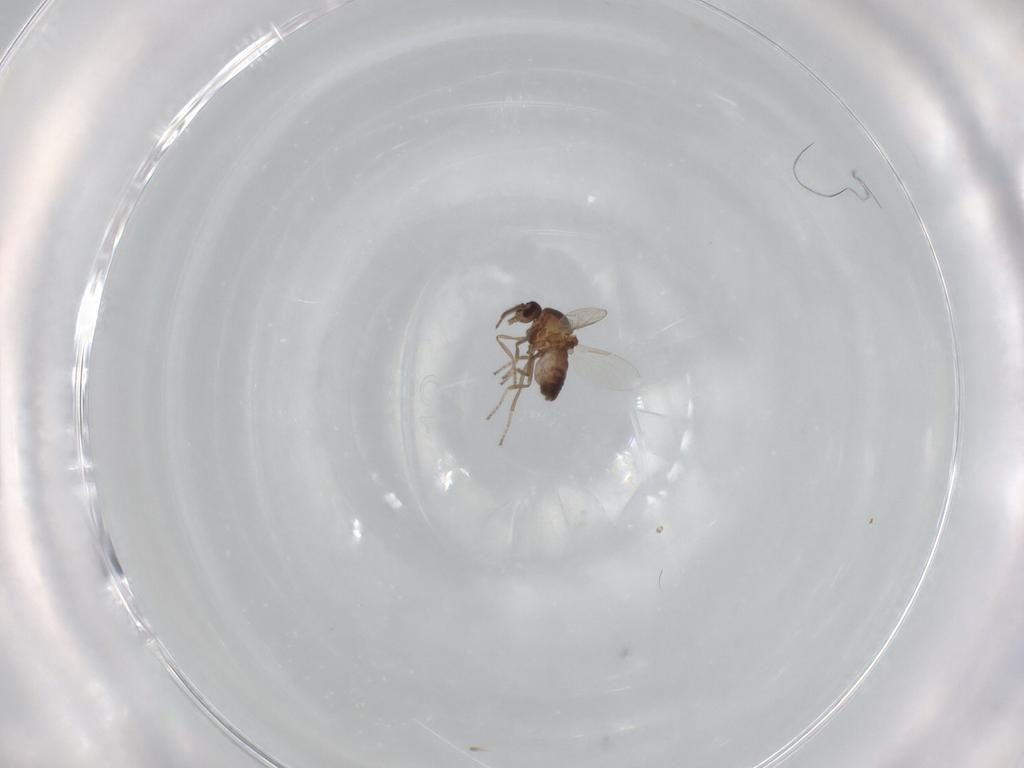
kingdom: Animalia
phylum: Arthropoda
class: Insecta
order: Diptera
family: Ceratopogonidae
